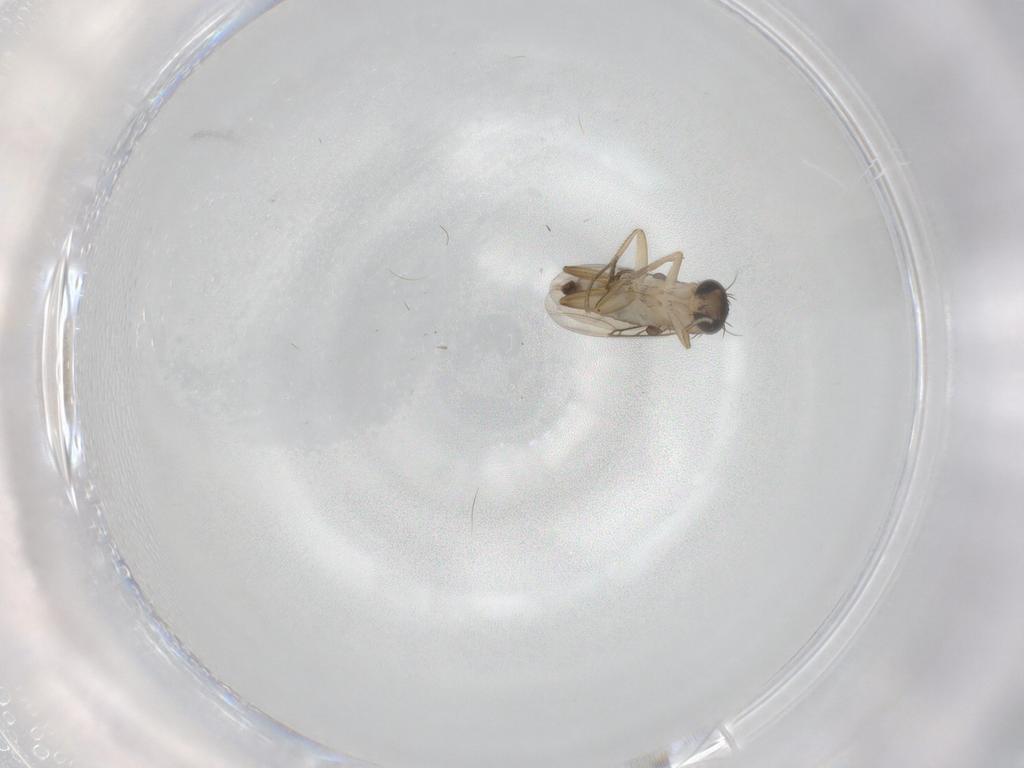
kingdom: Animalia
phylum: Arthropoda
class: Insecta
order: Diptera
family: Phoridae
